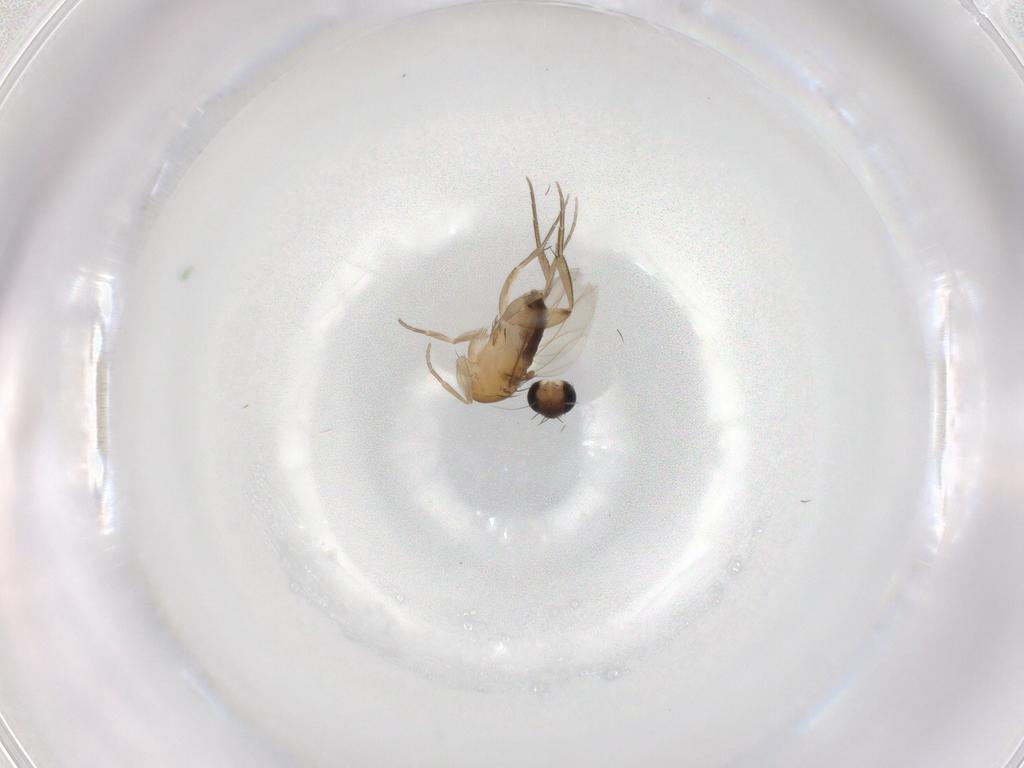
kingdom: Animalia
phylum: Arthropoda
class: Insecta
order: Diptera
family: Phoridae
